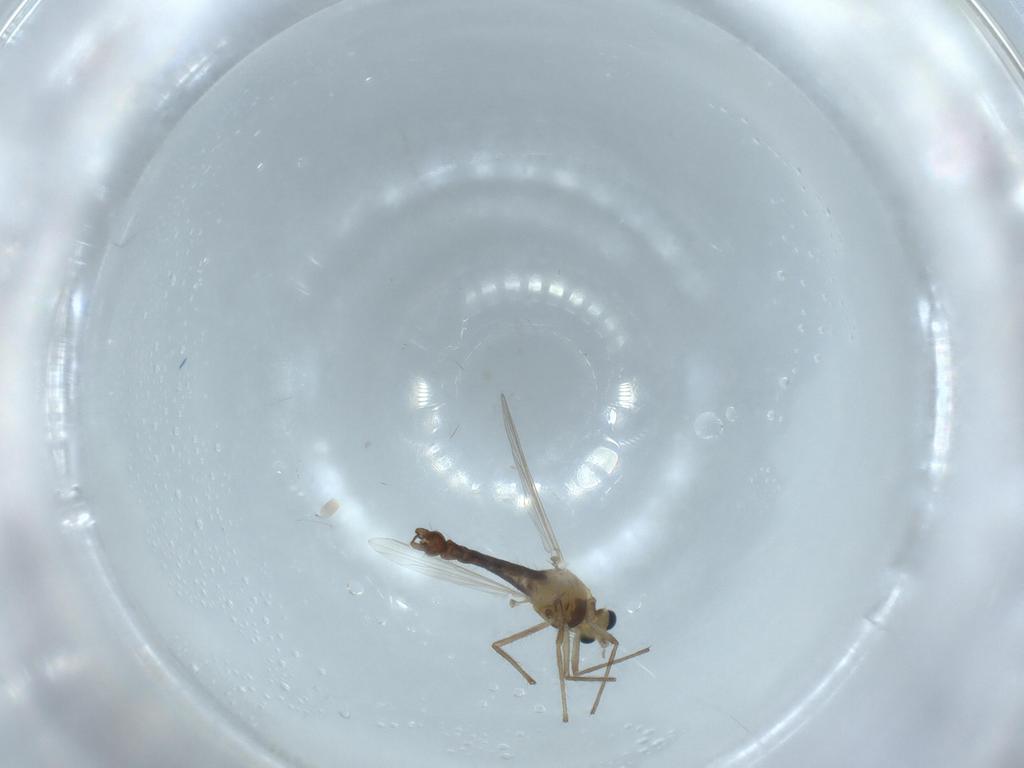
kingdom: Animalia
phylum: Arthropoda
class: Insecta
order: Diptera
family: Chironomidae
